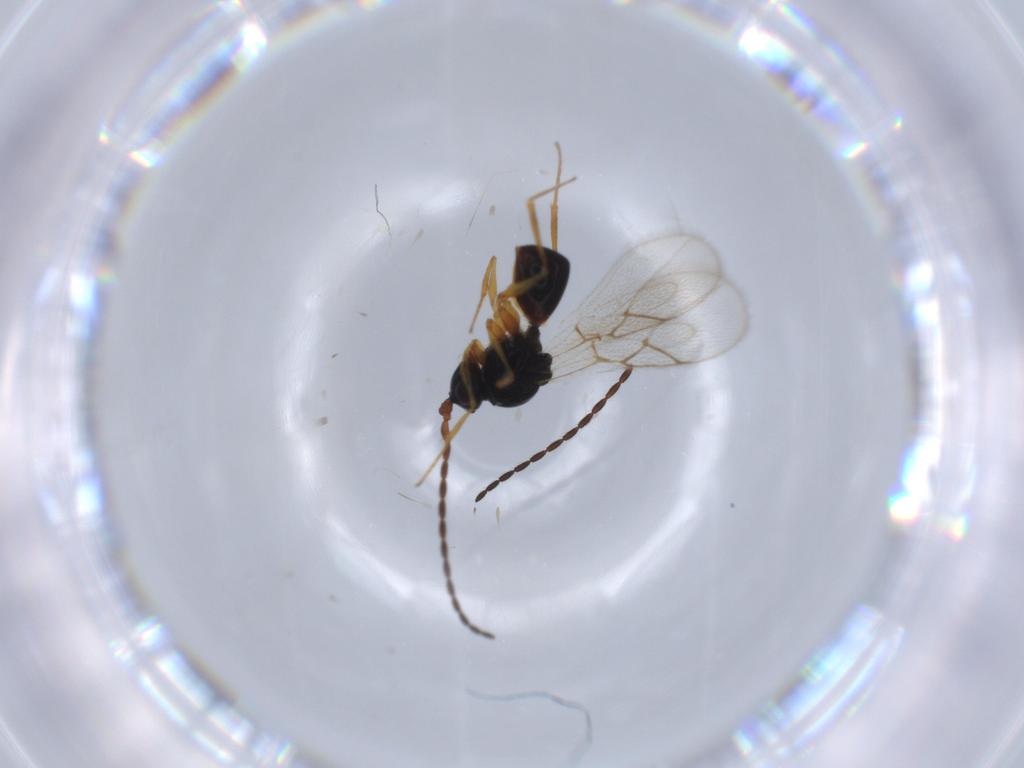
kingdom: Animalia
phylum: Arthropoda
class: Insecta
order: Hymenoptera
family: Figitidae
